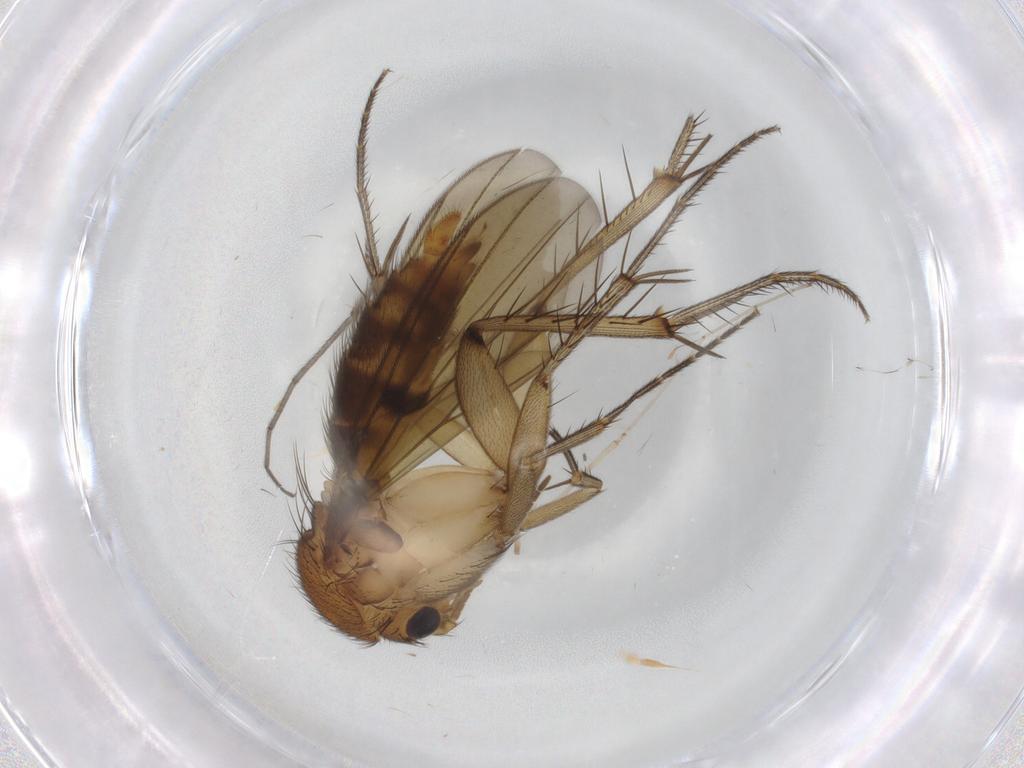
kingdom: Animalia
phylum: Arthropoda
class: Insecta
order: Diptera
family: Mycetophilidae
